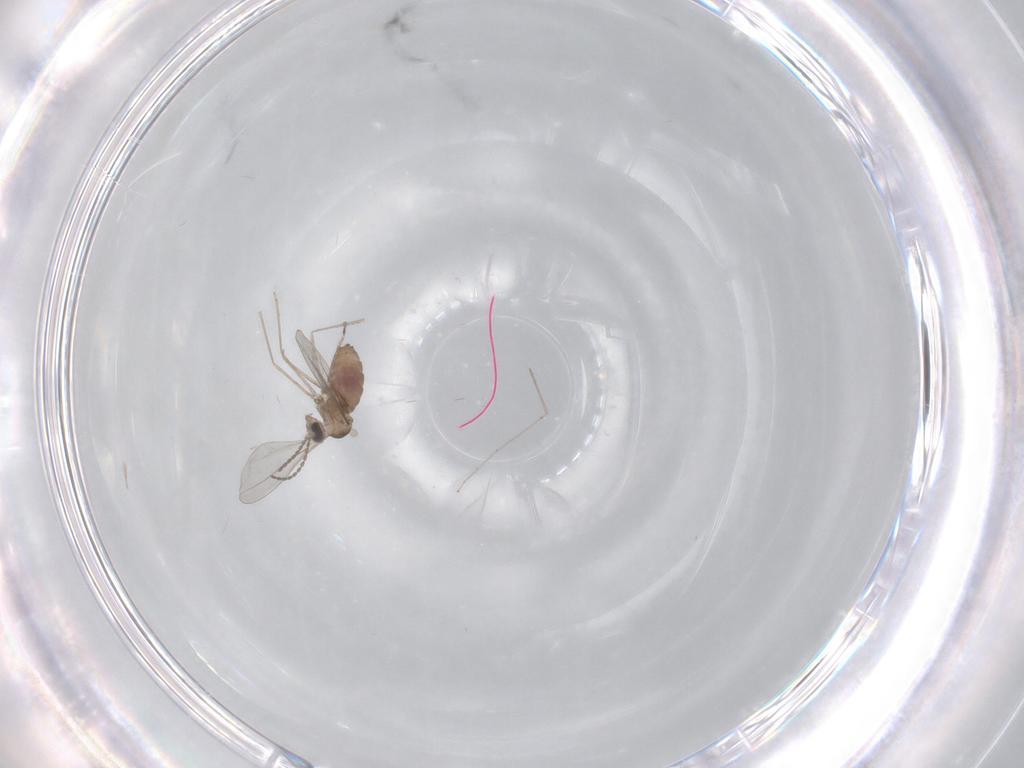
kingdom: Animalia
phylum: Arthropoda
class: Insecta
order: Diptera
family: Cecidomyiidae
